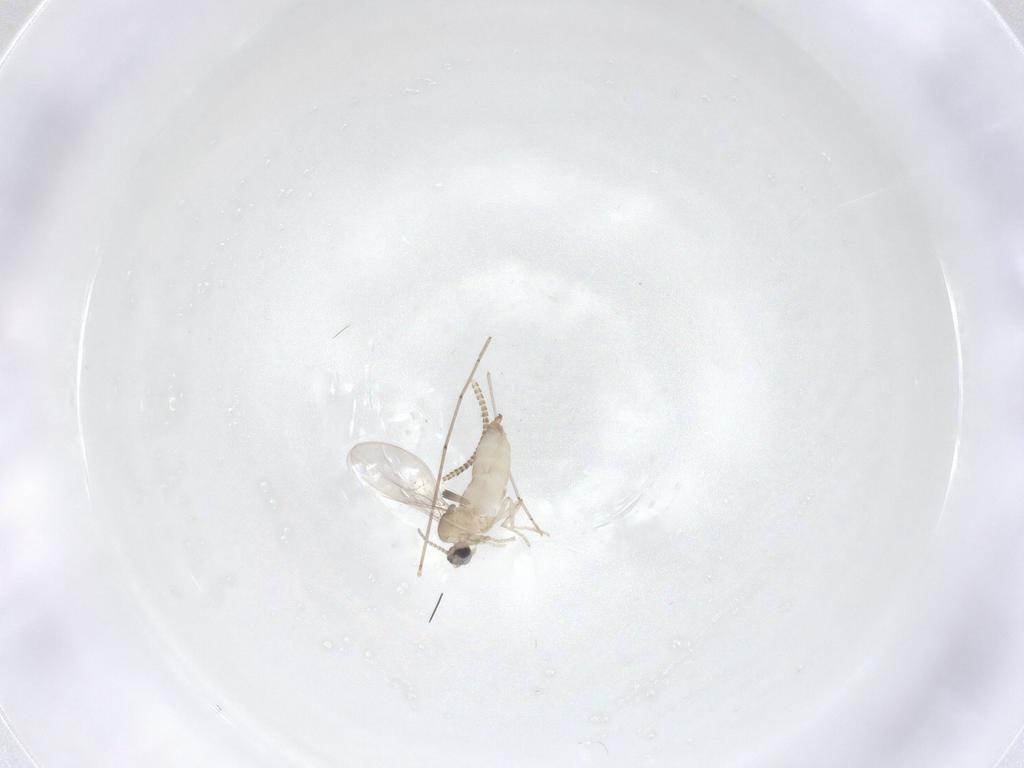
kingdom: Animalia
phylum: Arthropoda
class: Insecta
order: Diptera
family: Cecidomyiidae
